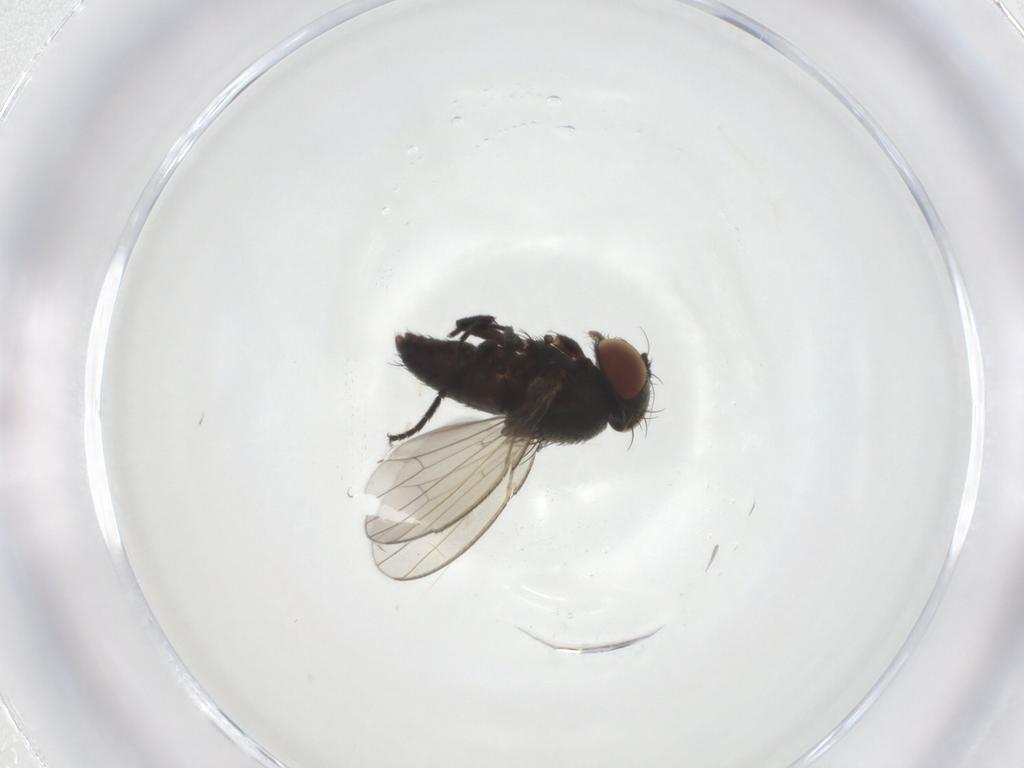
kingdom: Animalia
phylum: Arthropoda
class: Insecta
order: Diptera
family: Milichiidae
